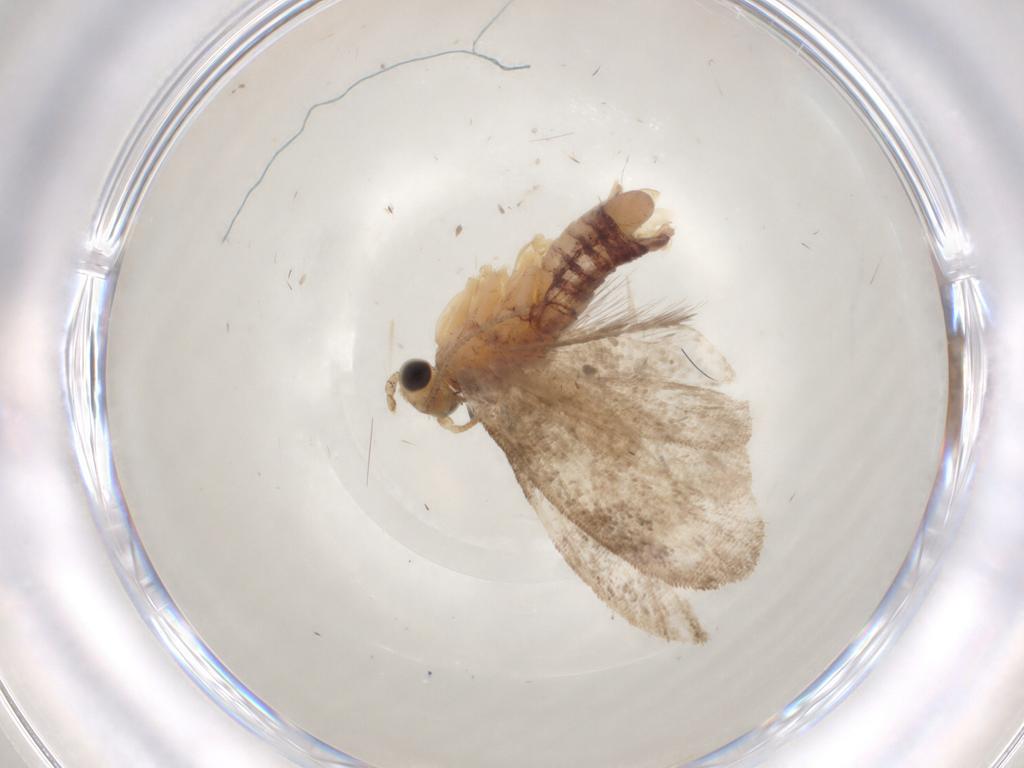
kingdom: Animalia
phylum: Arthropoda
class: Insecta
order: Lepidoptera
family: Dryadaulidae
